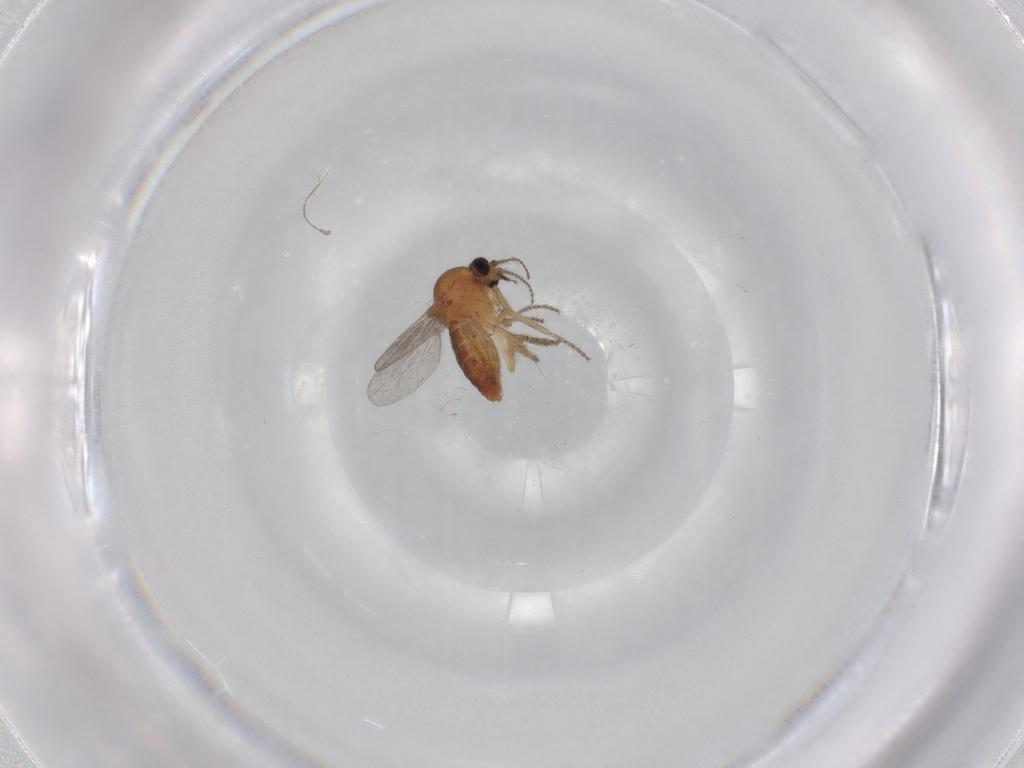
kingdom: Animalia
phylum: Arthropoda
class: Insecta
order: Diptera
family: Ceratopogonidae
